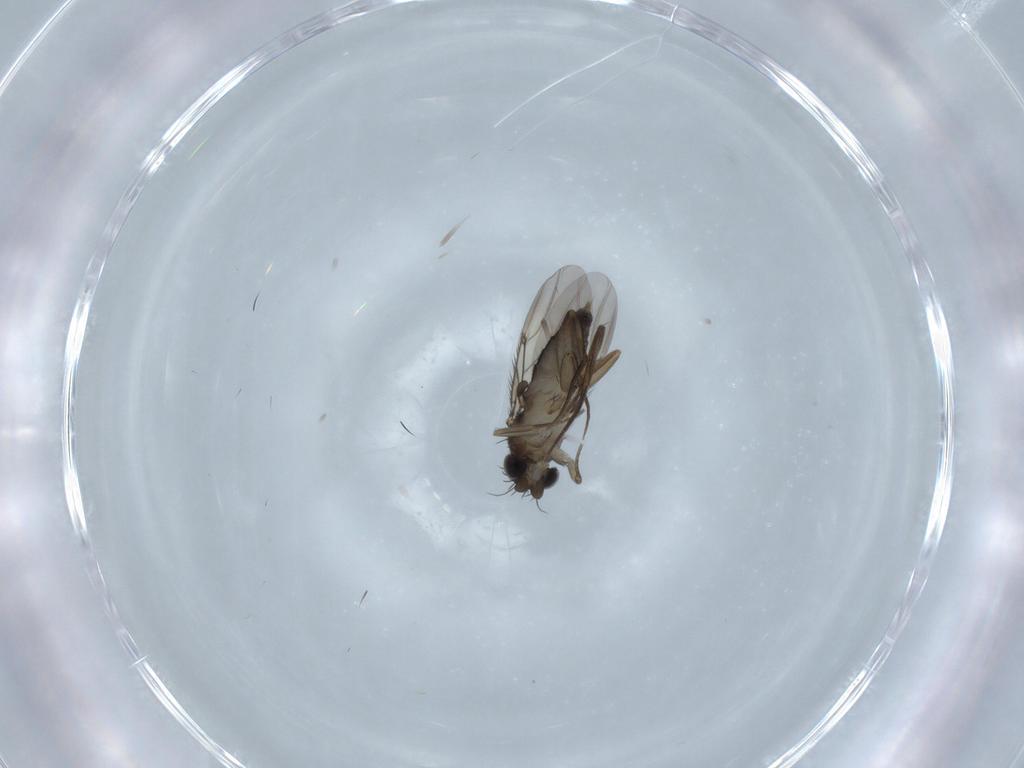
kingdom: Animalia
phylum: Arthropoda
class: Insecta
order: Diptera
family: Phoridae
